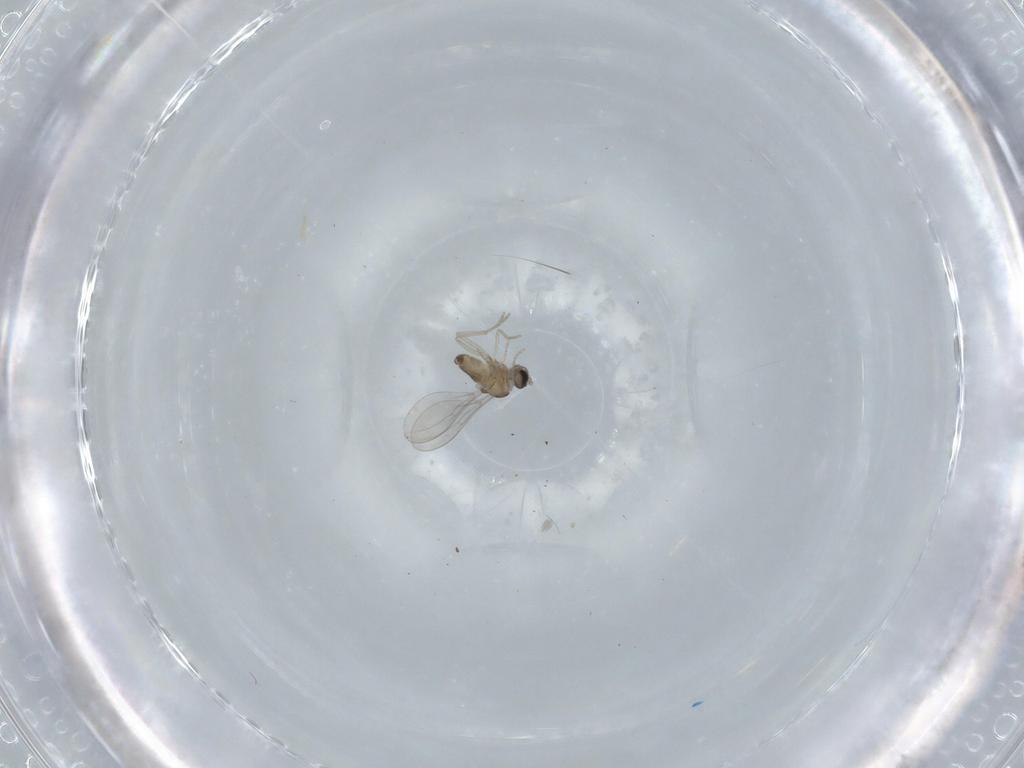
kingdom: Animalia
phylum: Arthropoda
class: Insecta
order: Diptera
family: Cecidomyiidae
